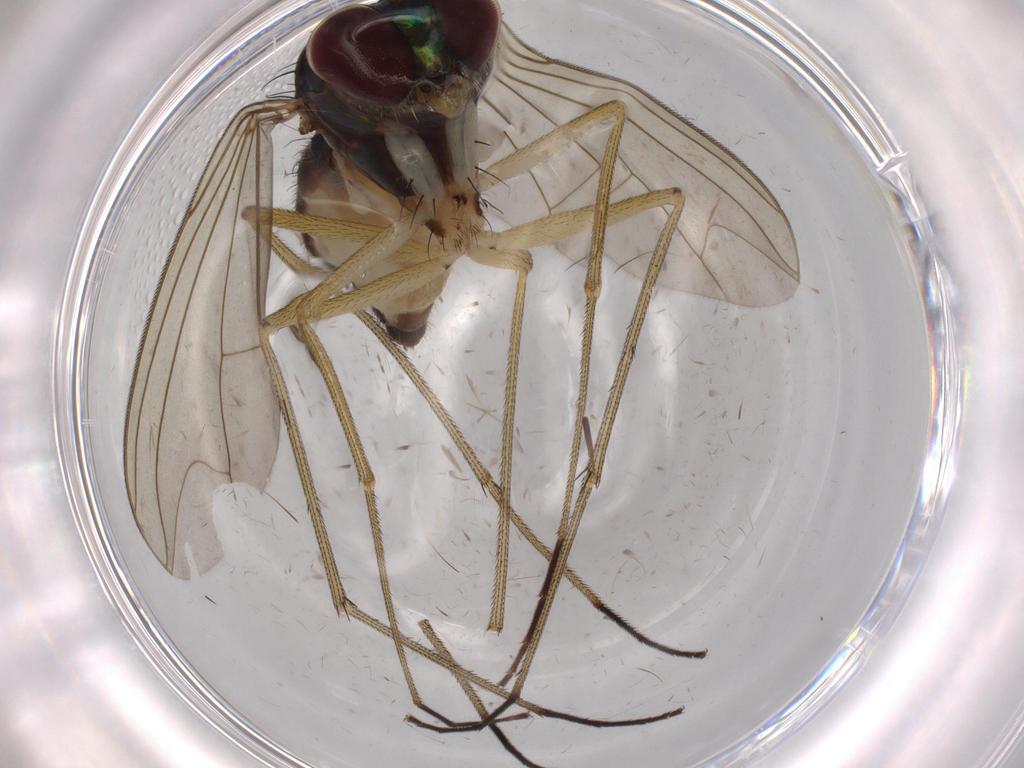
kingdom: Animalia
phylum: Arthropoda
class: Insecta
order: Diptera
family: Dolichopodidae
